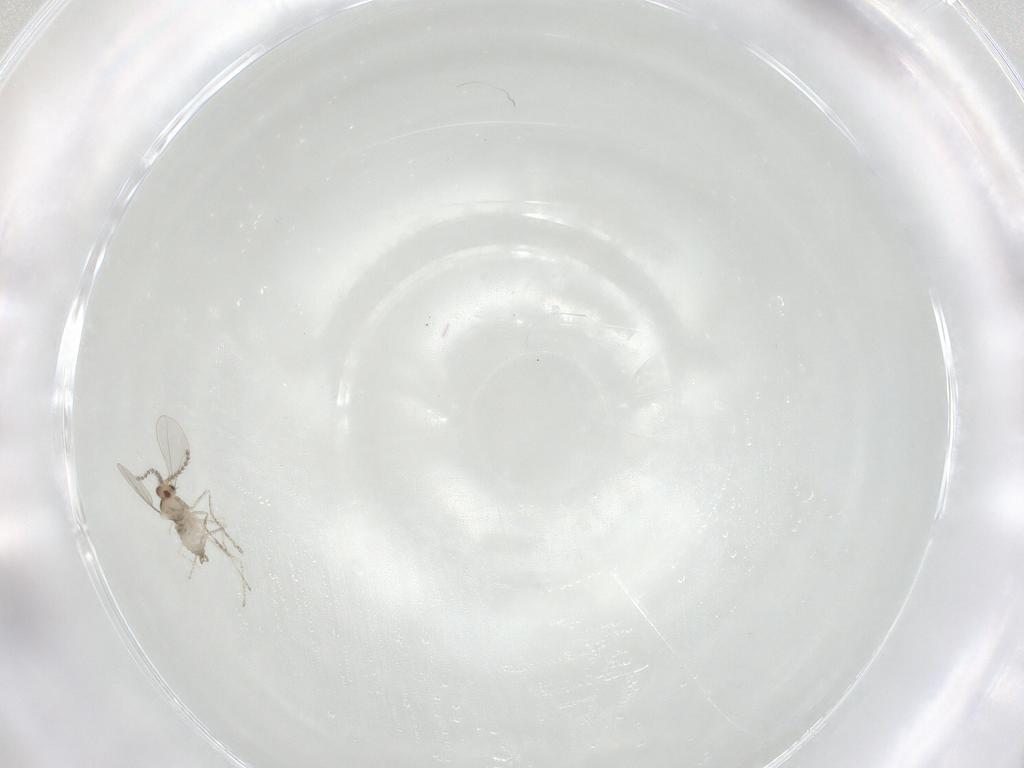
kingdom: Animalia
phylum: Arthropoda
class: Insecta
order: Diptera
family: Cecidomyiidae
